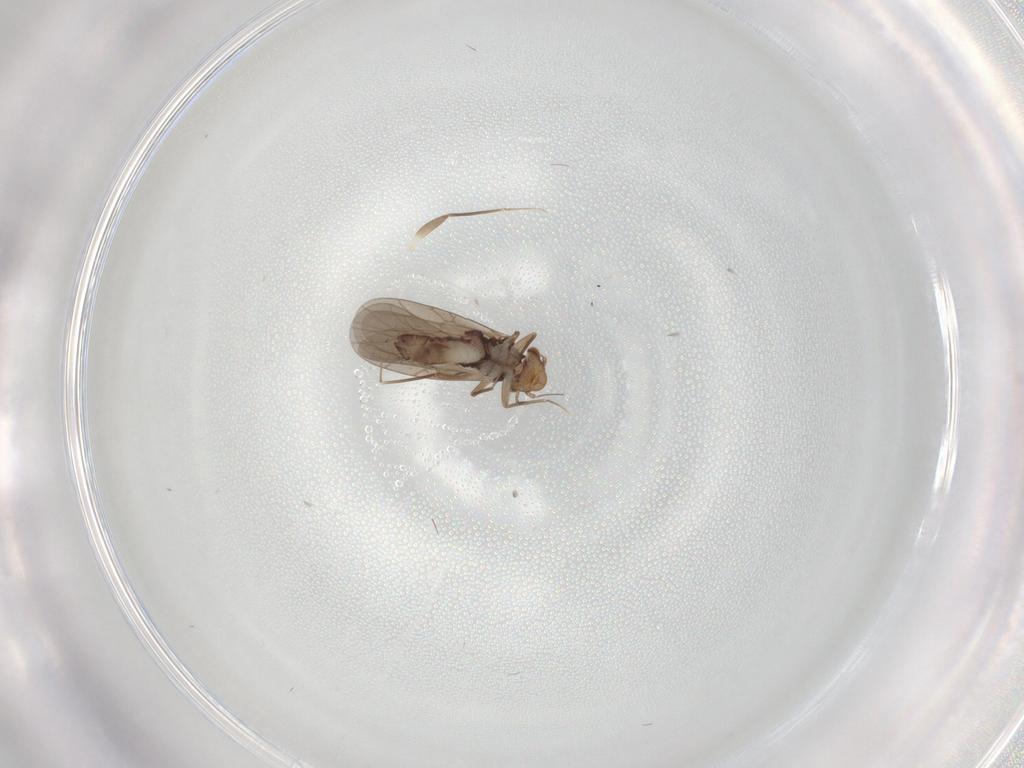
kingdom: Animalia
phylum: Arthropoda
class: Insecta
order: Psocodea
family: Lepidopsocidae
